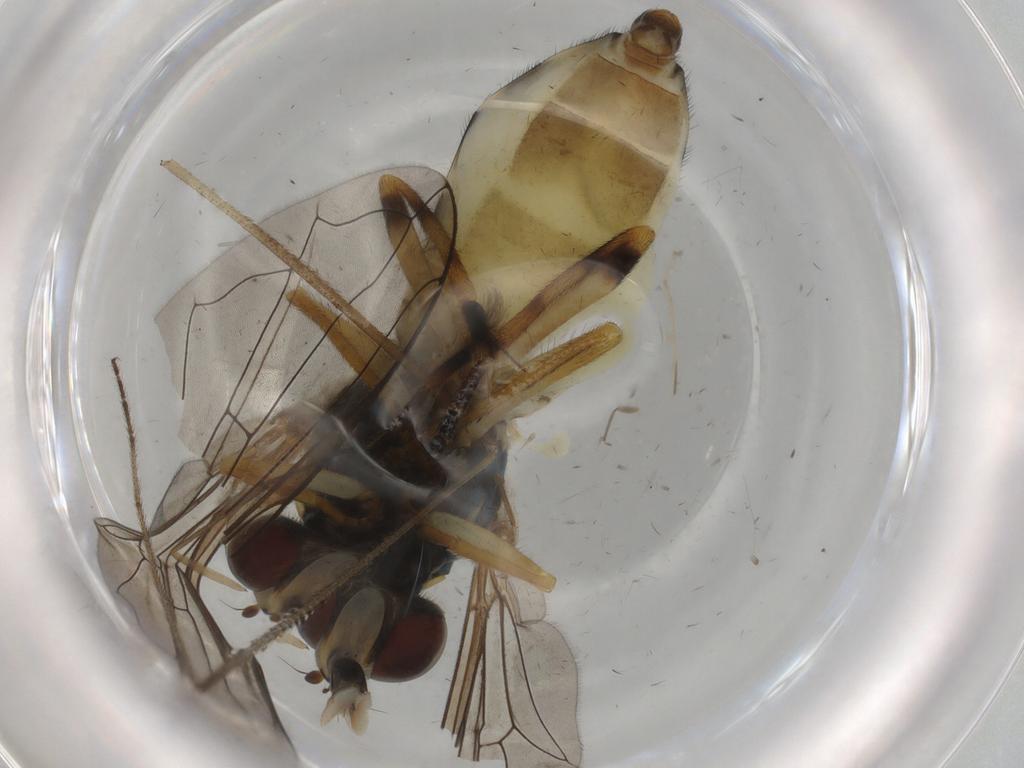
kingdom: Animalia
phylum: Arthropoda
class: Insecta
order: Diptera
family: Syrphidae
